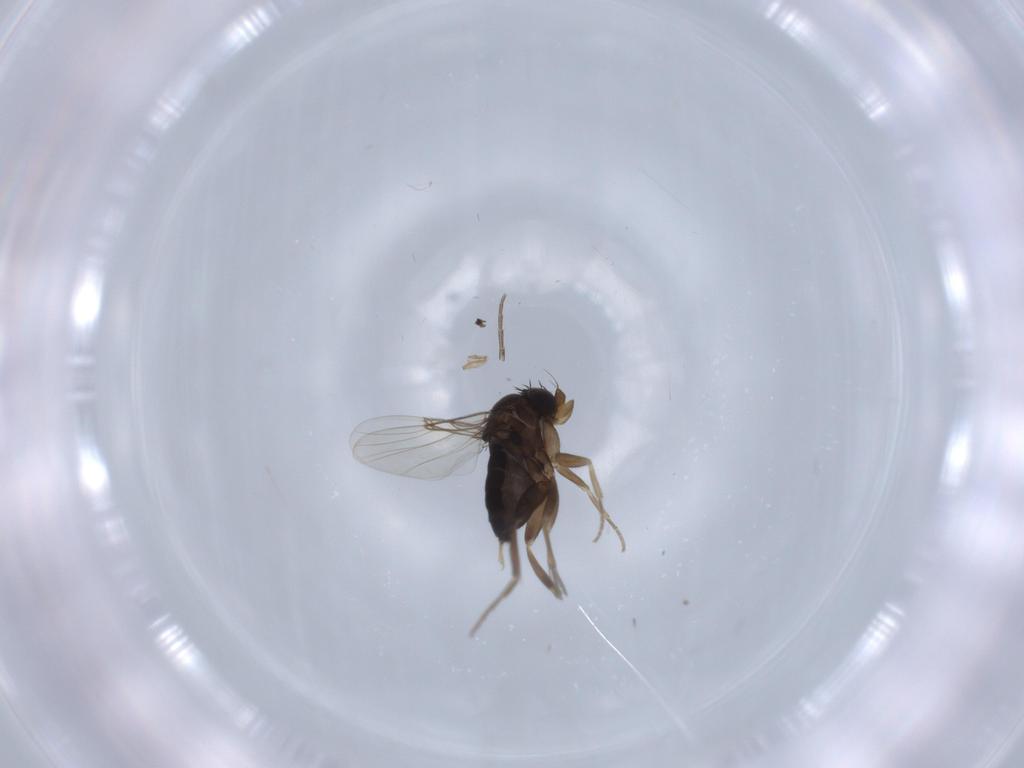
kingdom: Animalia
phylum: Arthropoda
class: Insecta
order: Diptera
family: Phoridae
